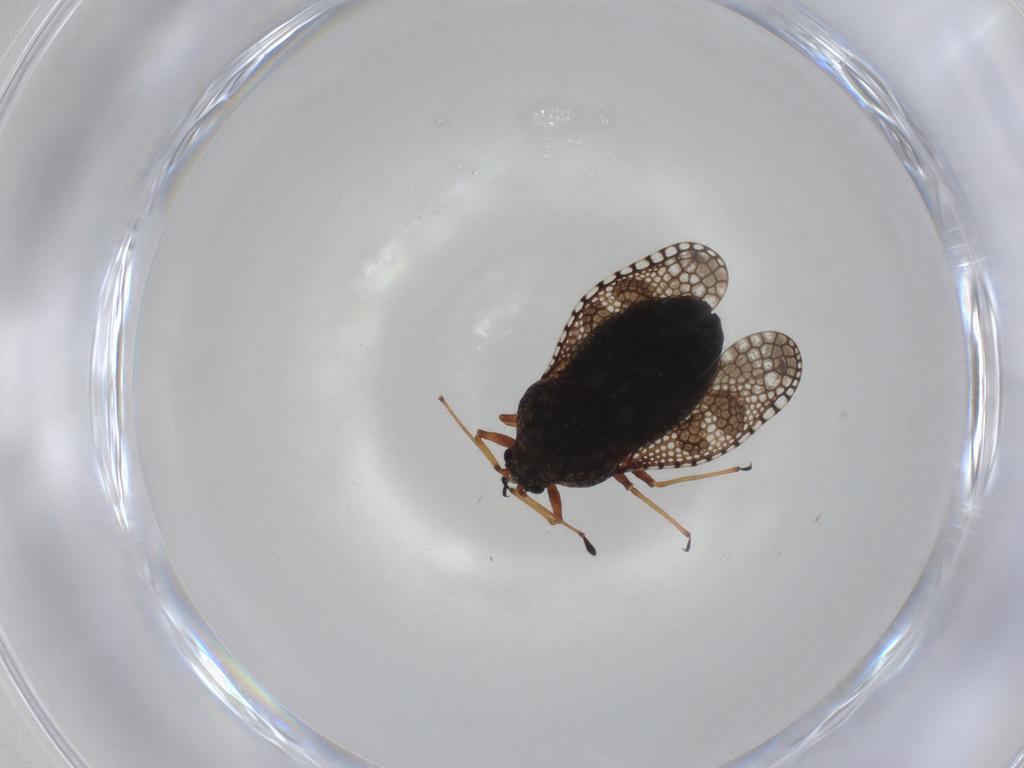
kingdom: Animalia
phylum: Arthropoda
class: Insecta
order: Hemiptera
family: Tingidae
